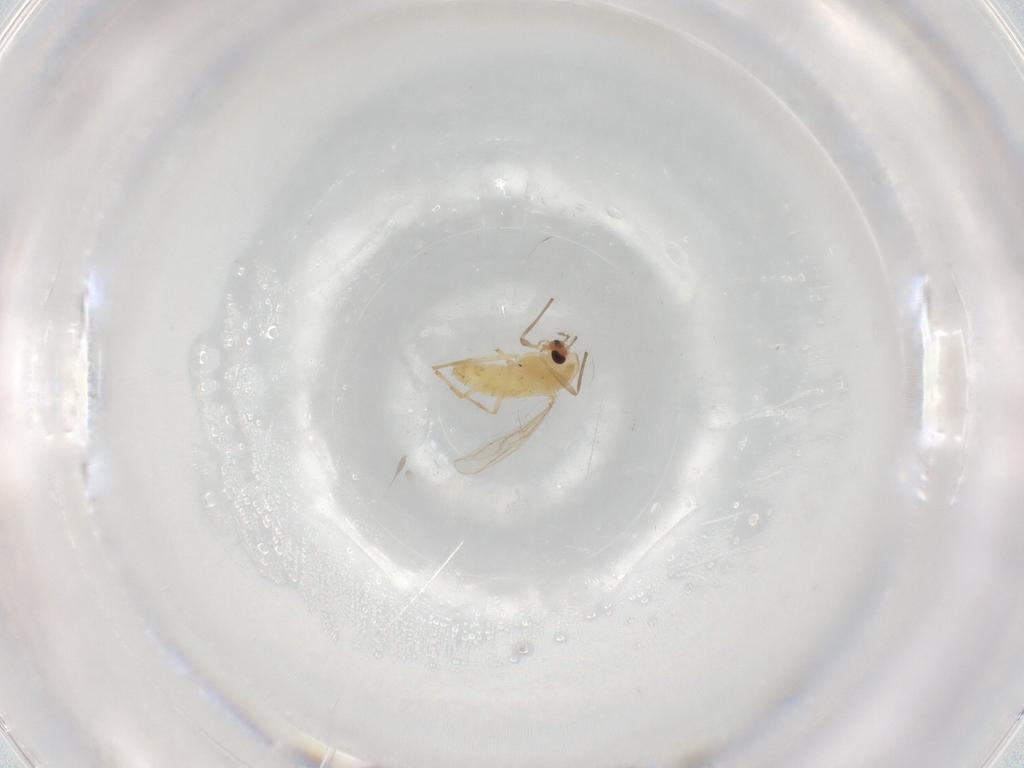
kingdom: Animalia
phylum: Arthropoda
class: Insecta
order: Diptera
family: Chironomidae
